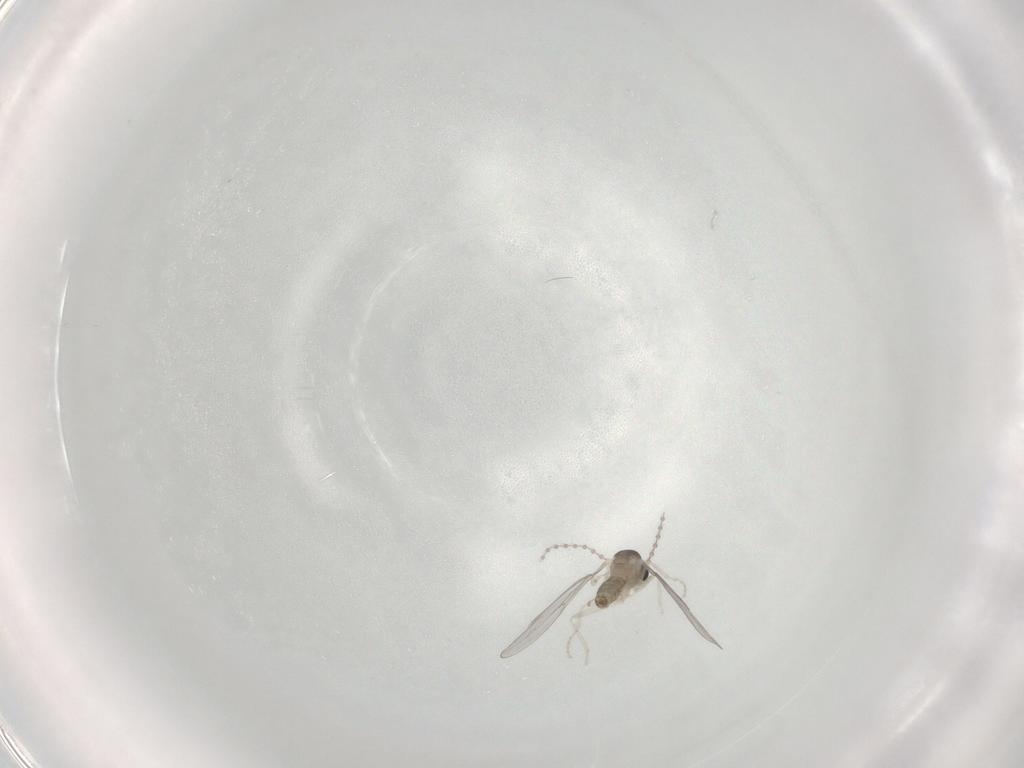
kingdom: Animalia
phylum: Arthropoda
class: Insecta
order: Diptera
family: Cecidomyiidae
